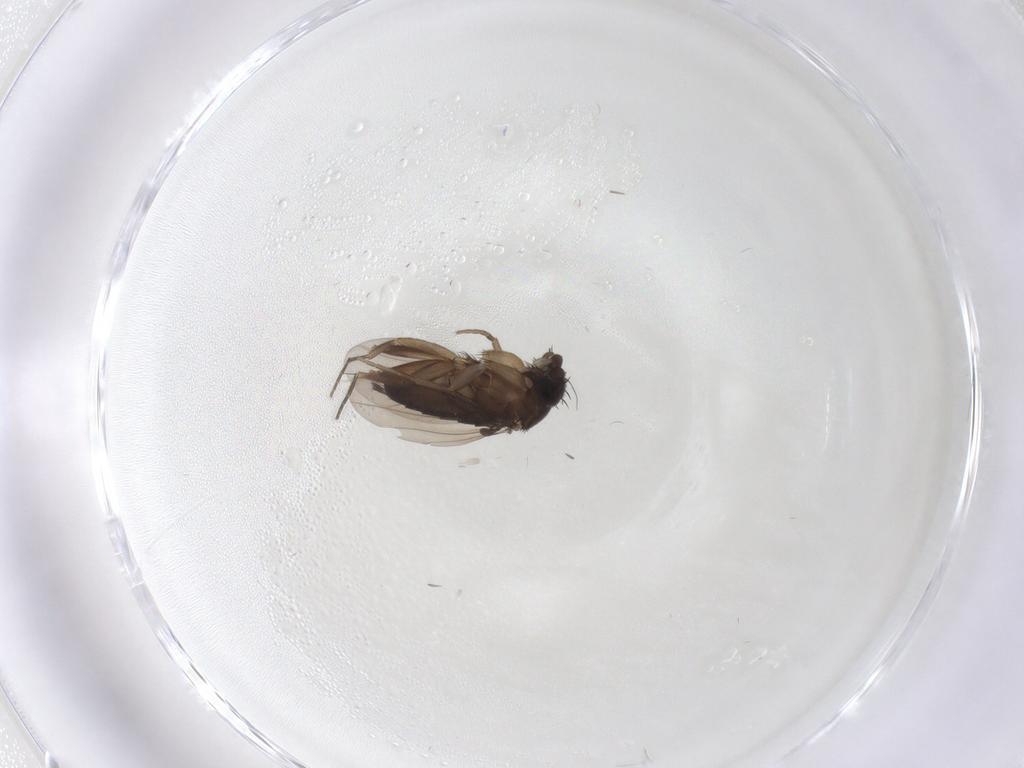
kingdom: Animalia
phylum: Arthropoda
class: Insecta
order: Diptera
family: Phoridae
